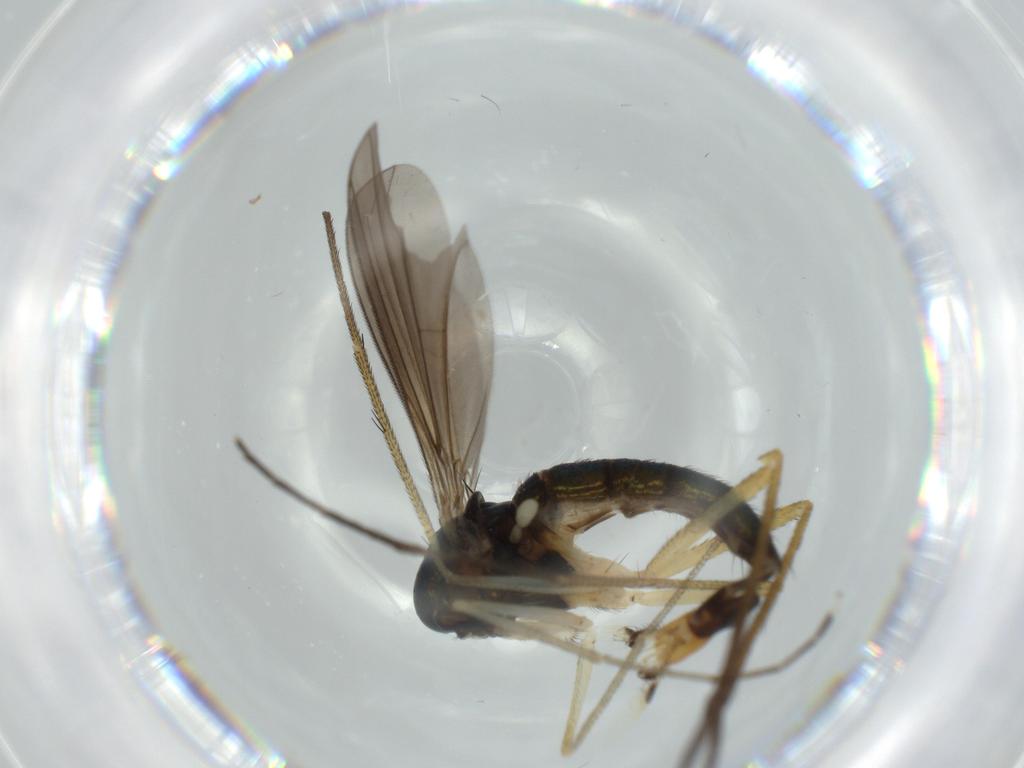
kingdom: Animalia
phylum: Arthropoda
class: Insecta
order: Diptera
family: Dolichopodidae
